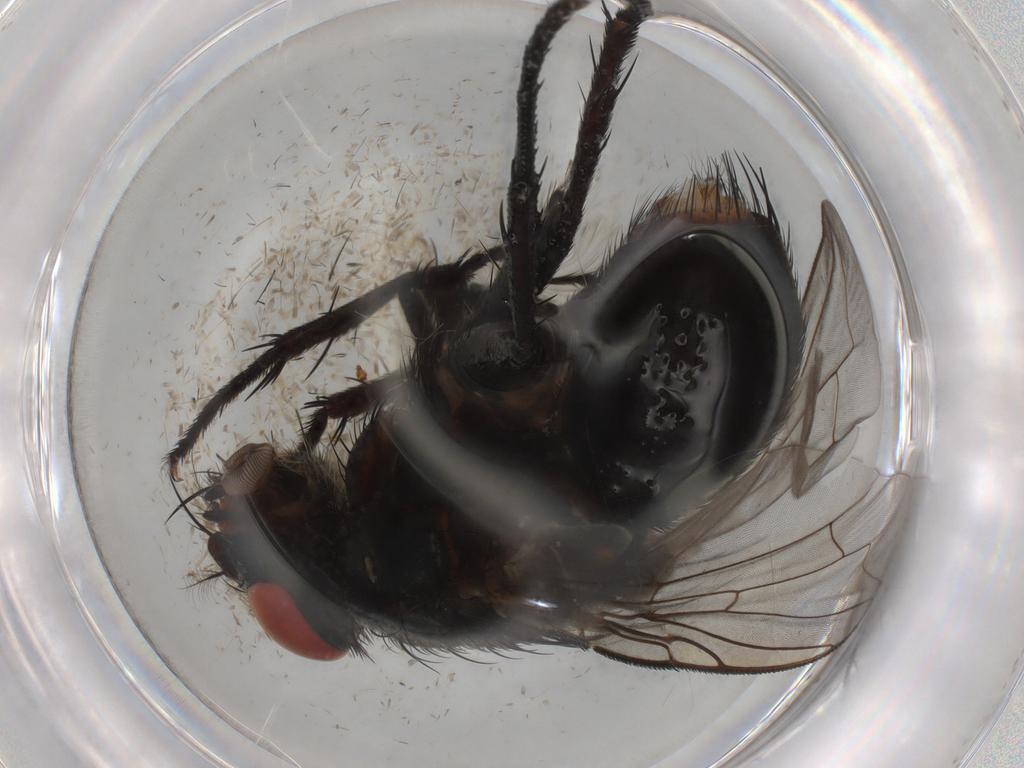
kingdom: Animalia
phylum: Arthropoda
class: Insecta
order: Diptera
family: Sarcophagidae
